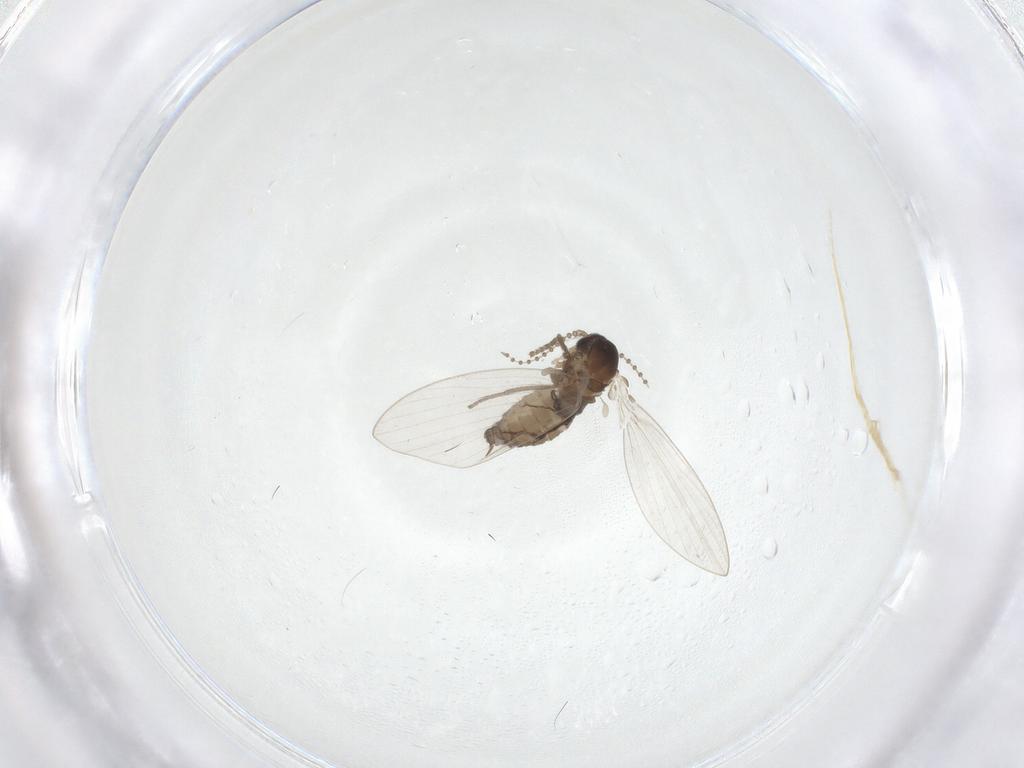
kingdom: Animalia
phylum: Arthropoda
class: Insecta
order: Diptera
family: Psychodidae
